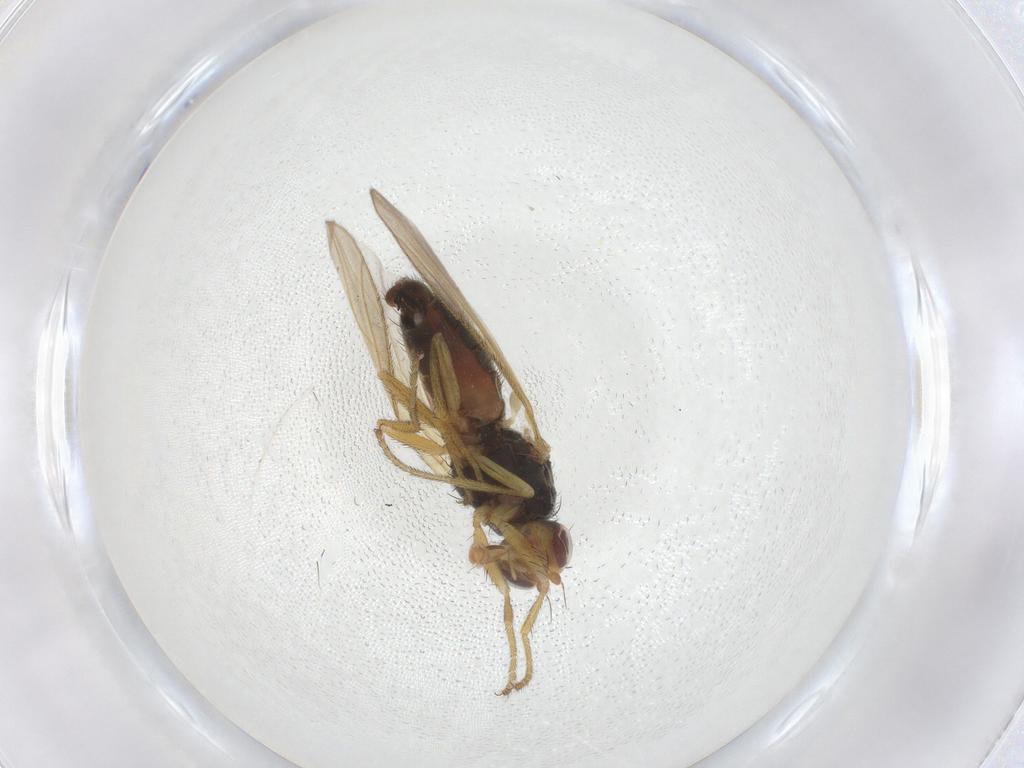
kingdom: Animalia
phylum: Arthropoda
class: Insecta
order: Diptera
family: Heleomyzidae
